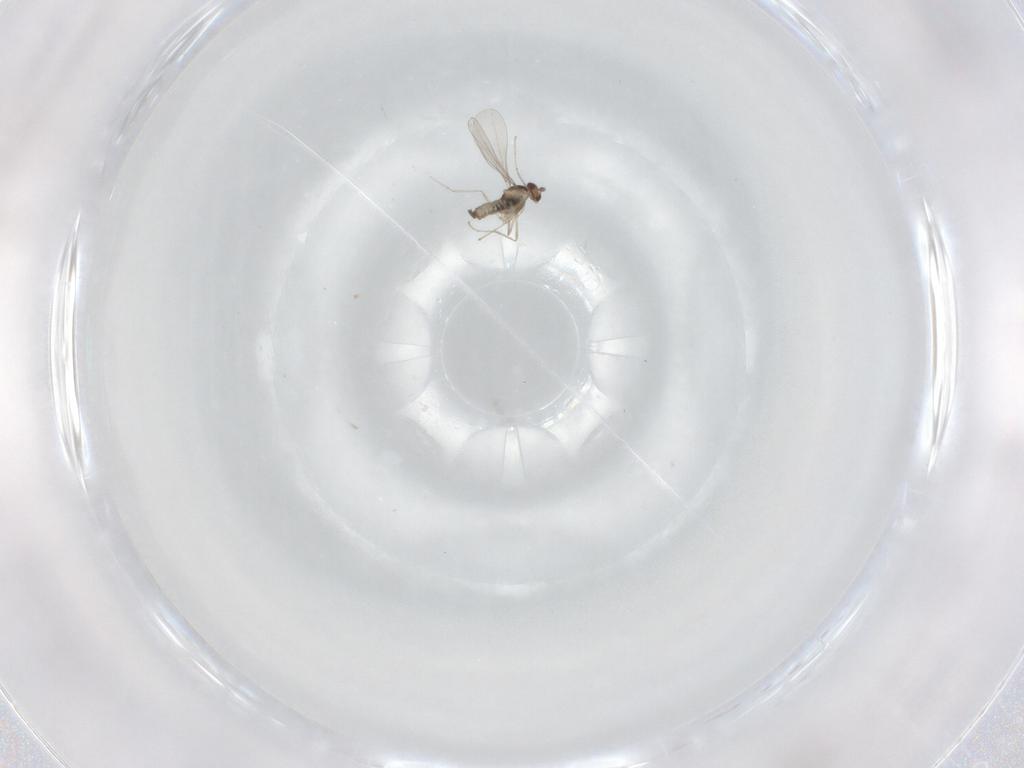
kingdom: Animalia
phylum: Arthropoda
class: Insecta
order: Diptera
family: Cecidomyiidae
